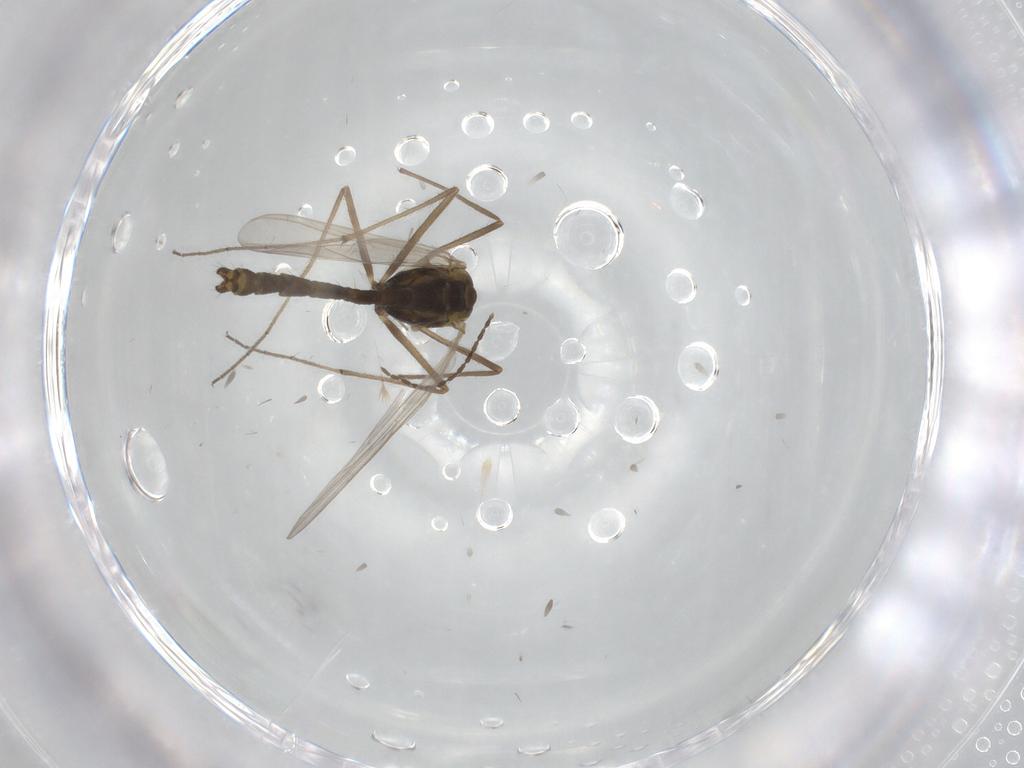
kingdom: Animalia
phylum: Arthropoda
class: Insecta
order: Diptera
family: Chironomidae
